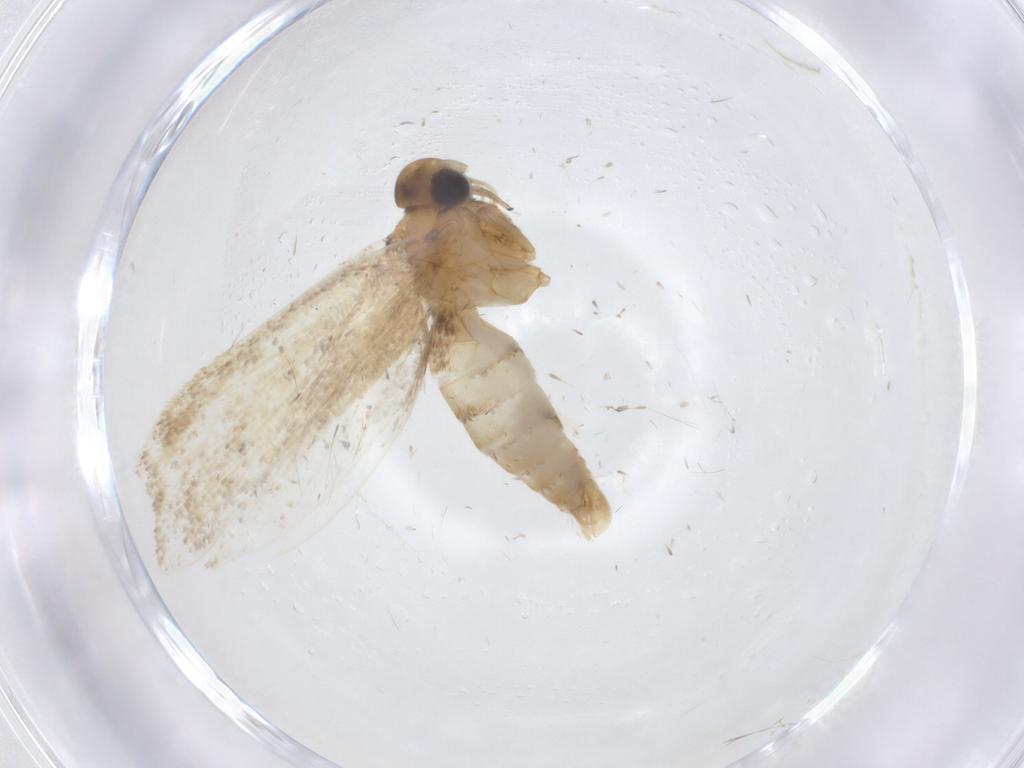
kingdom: Animalia
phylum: Arthropoda
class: Insecta
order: Lepidoptera
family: Oecophoridae
